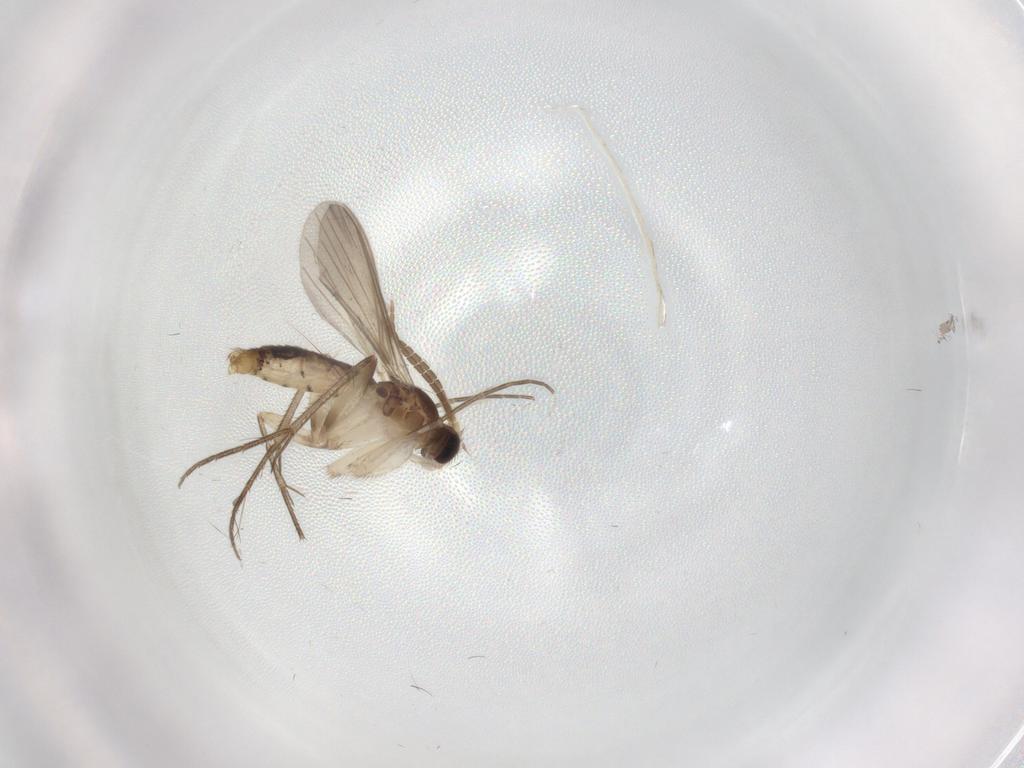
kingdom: Animalia
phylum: Arthropoda
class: Insecta
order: Diptera
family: Mycetophilidae
